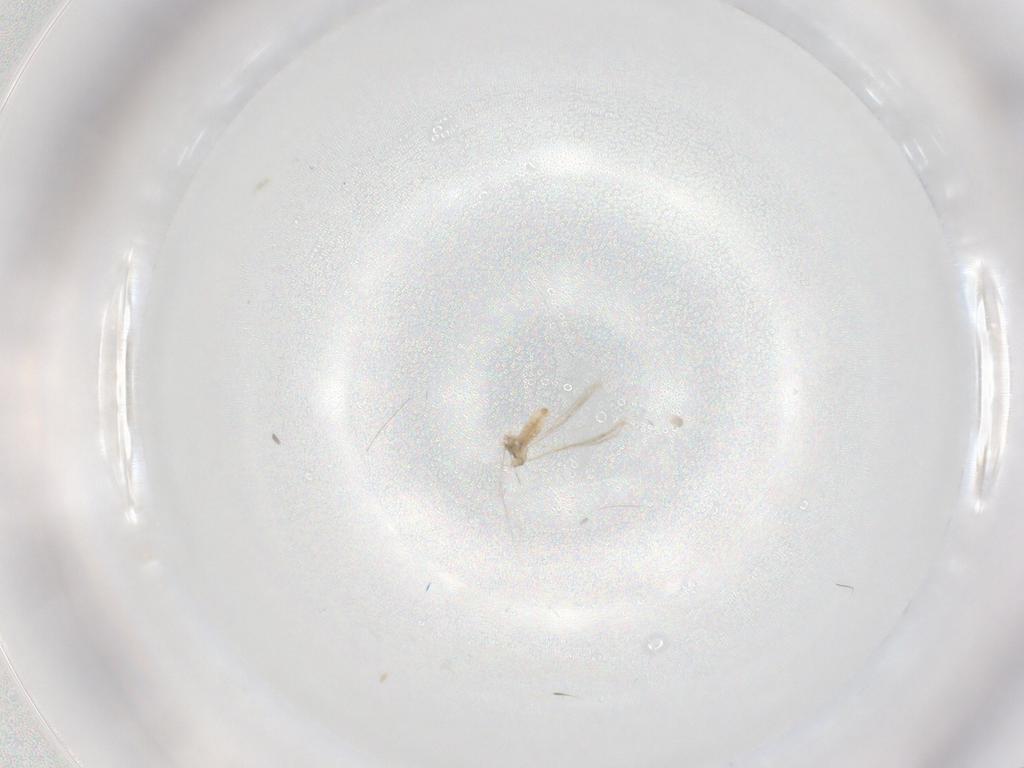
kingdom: Animalia
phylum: Arthropoda
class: Insecta
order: Diptera
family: Cecidomyiidae
